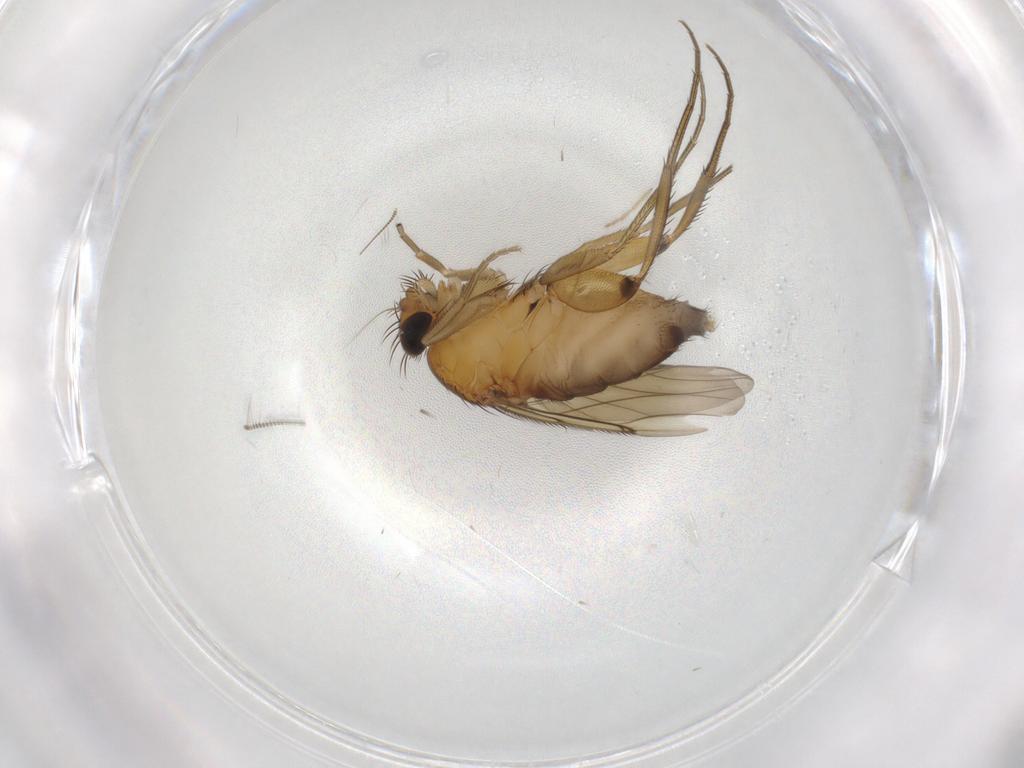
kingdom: Animalia
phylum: Arthropoda
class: Insecta
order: Diptera
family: Phoridae
